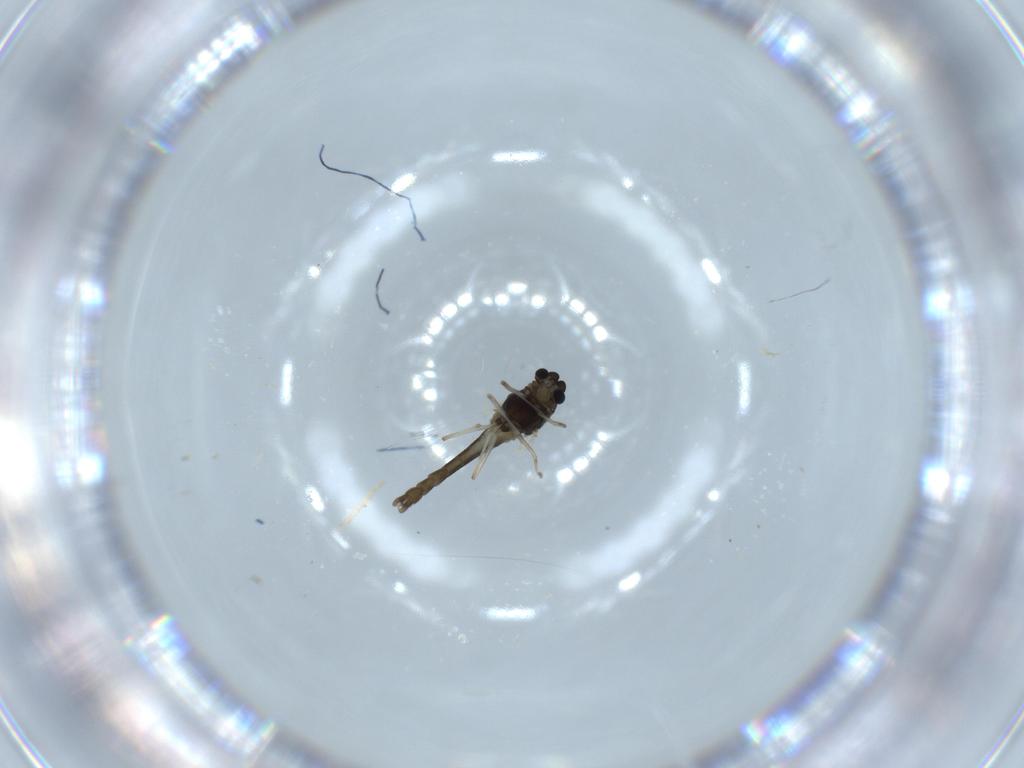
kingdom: Animalia
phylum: Arthropoda
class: Insecta
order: Diptera
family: Chironomidae
